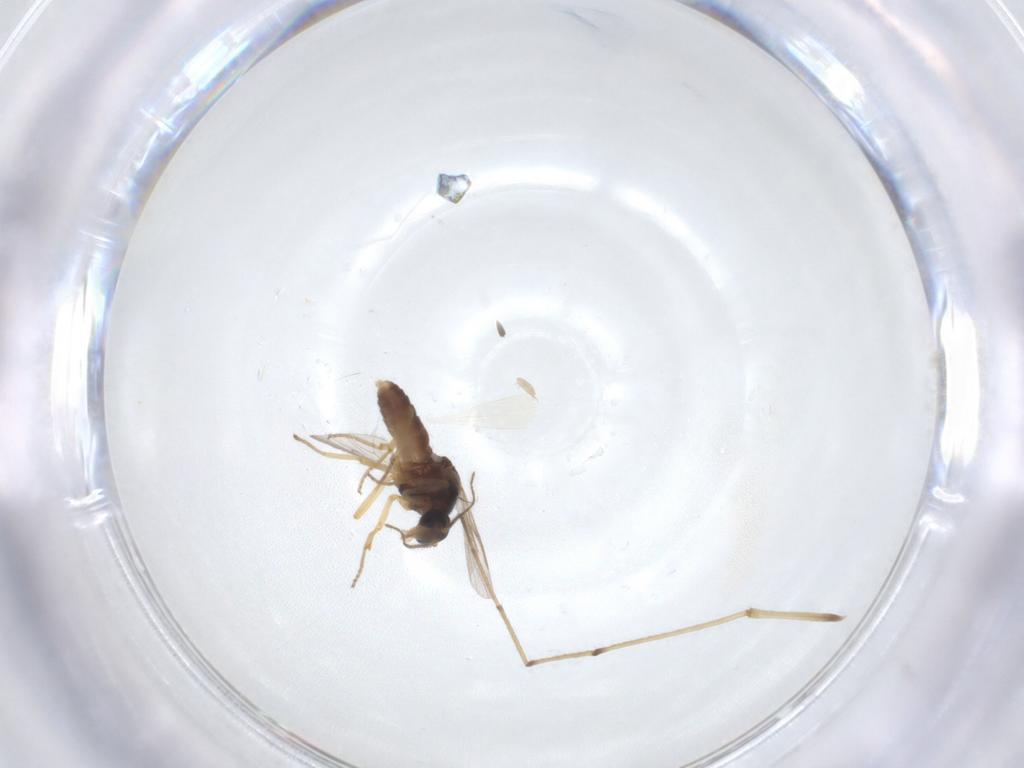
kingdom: Animalia
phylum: Arthropoda
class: Insecta
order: Diptera
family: Ceratopogonidae
